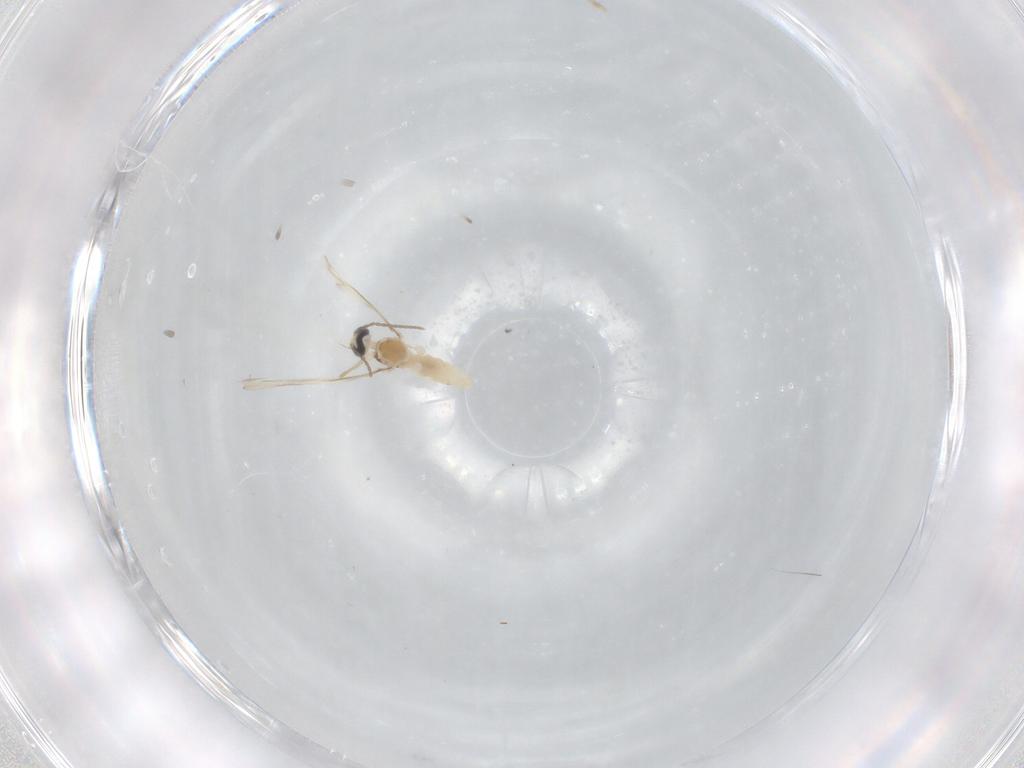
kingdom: Animalia
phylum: Arthropoda
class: Insecta
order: Diptera
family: Psychodidae
